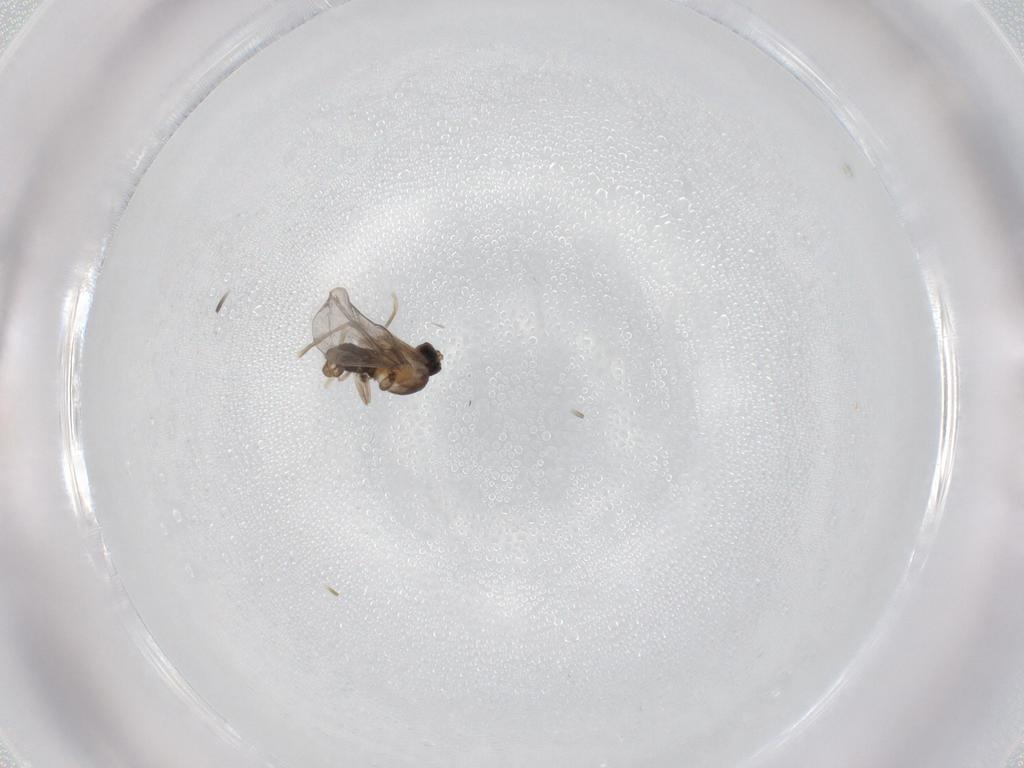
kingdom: Animalia
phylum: Arthropoda
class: Insecta
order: Diptera
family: Cecidomyiidae
